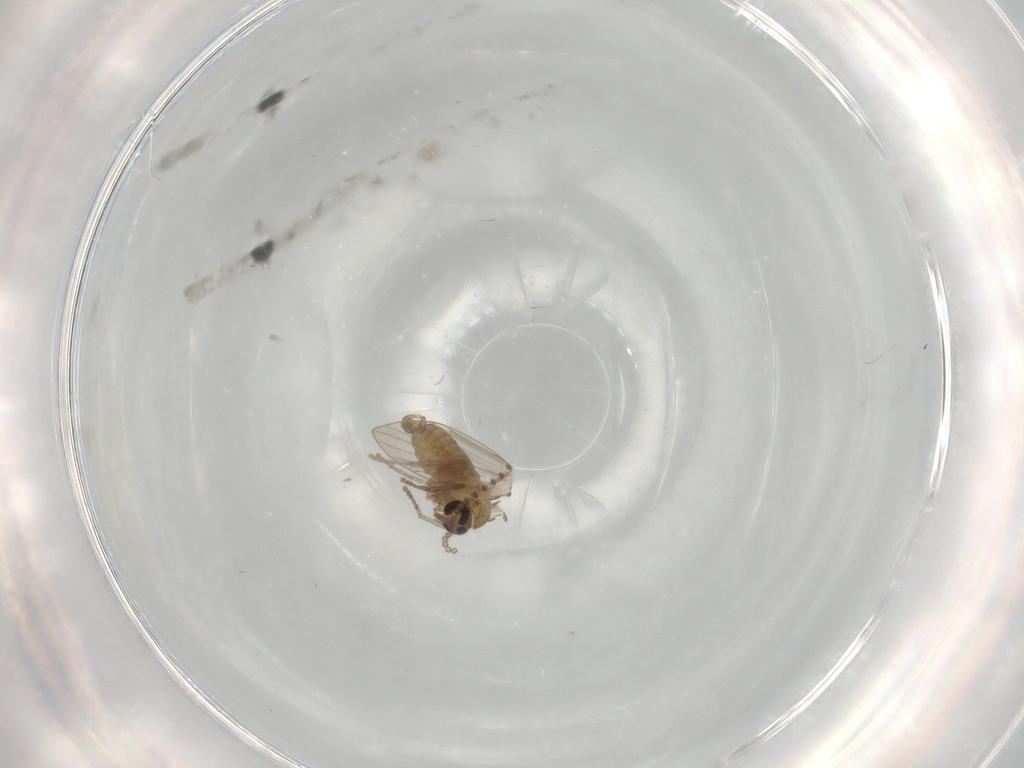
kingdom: Animalia
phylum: Arthropoda
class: Insecta
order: Diptera
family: Psychodidae
